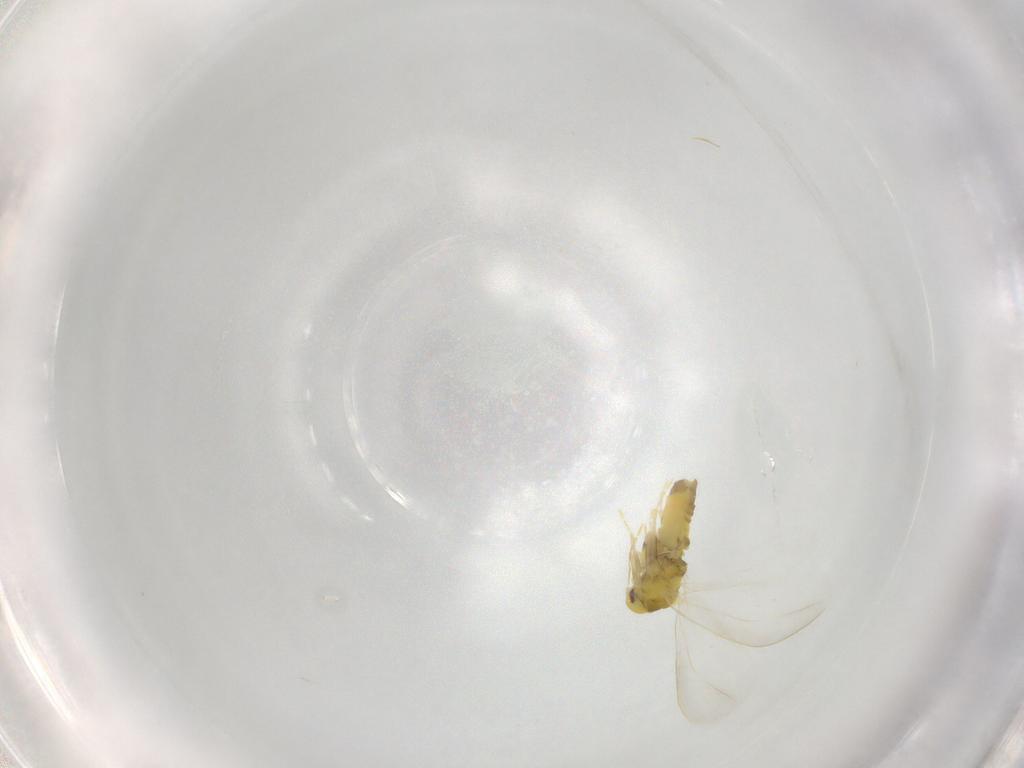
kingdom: Animalia
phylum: Arthropoda
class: Insecta
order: Hemiptera
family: Aleyrodidae
